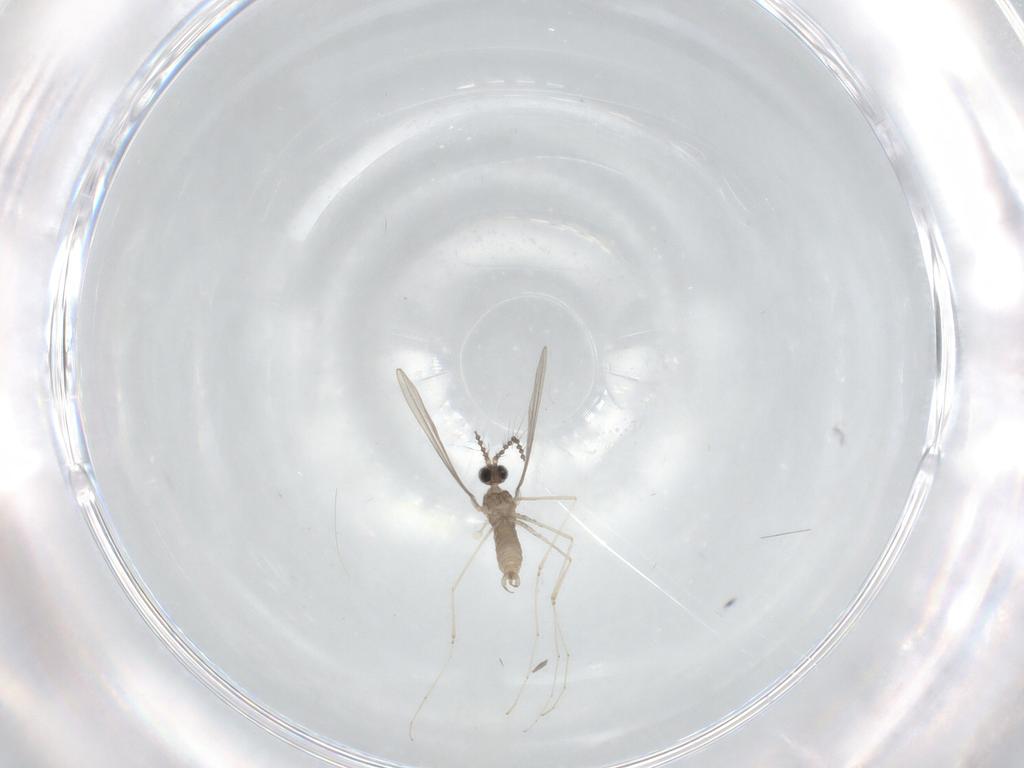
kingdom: Animalia
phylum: Arthropoda
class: Insecta
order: Diptera
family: Cecidomyiidae
